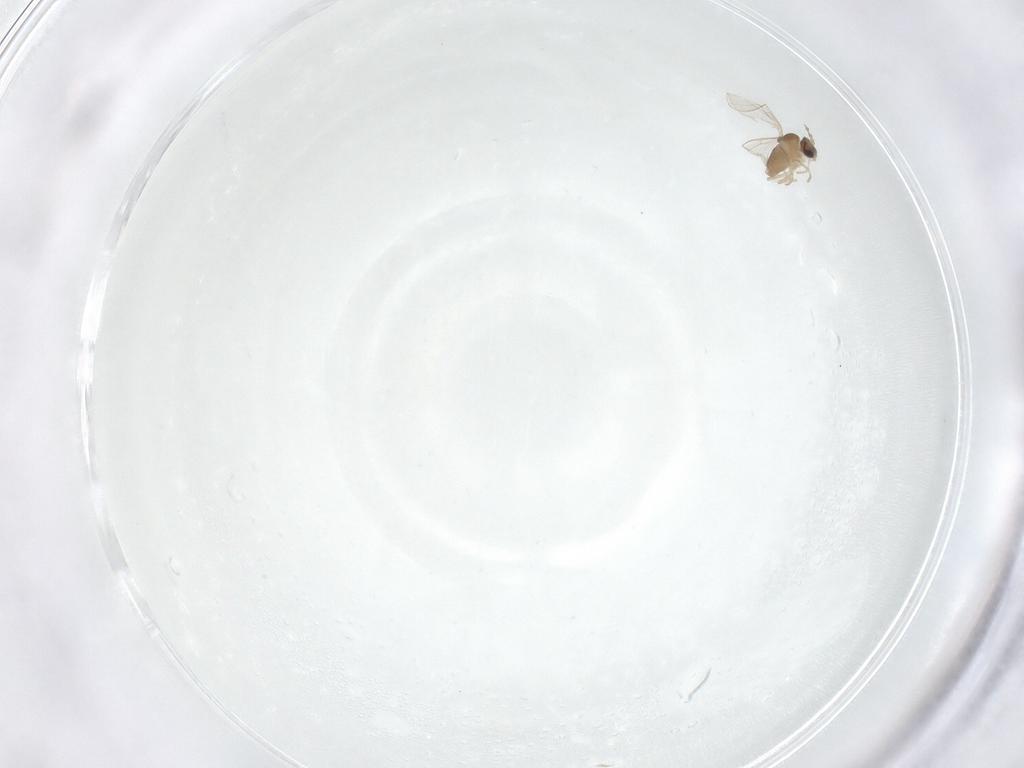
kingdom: Animalia
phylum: Arthropoda
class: Insecta
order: Diptera
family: Cecidomyiidae
